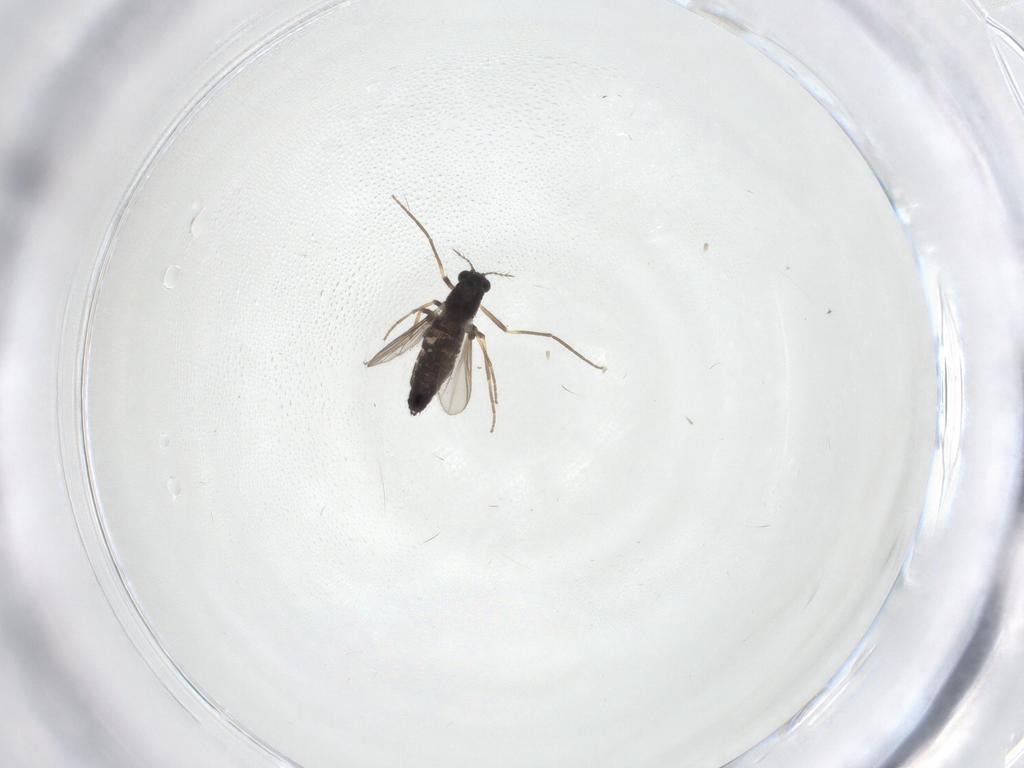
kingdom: Animalia
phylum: Arthropoda
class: Insecta
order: Diptera
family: Chironomidae
